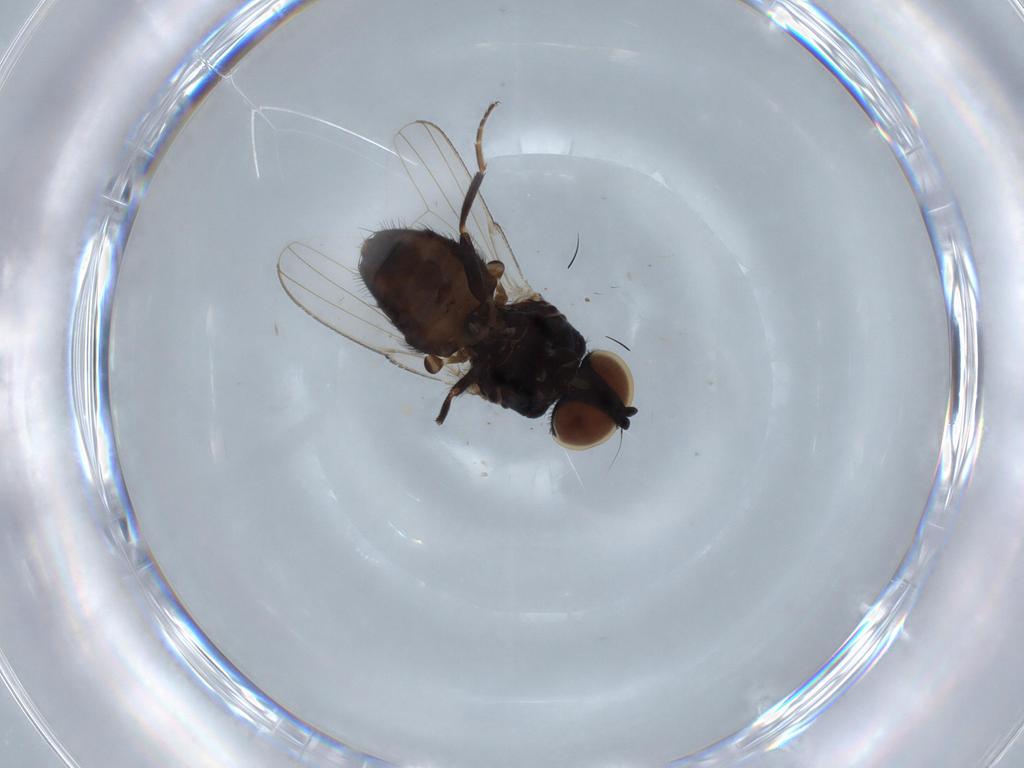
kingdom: Animalia
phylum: Arthropoda
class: Insecta
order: Diptera
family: Milichiidae
